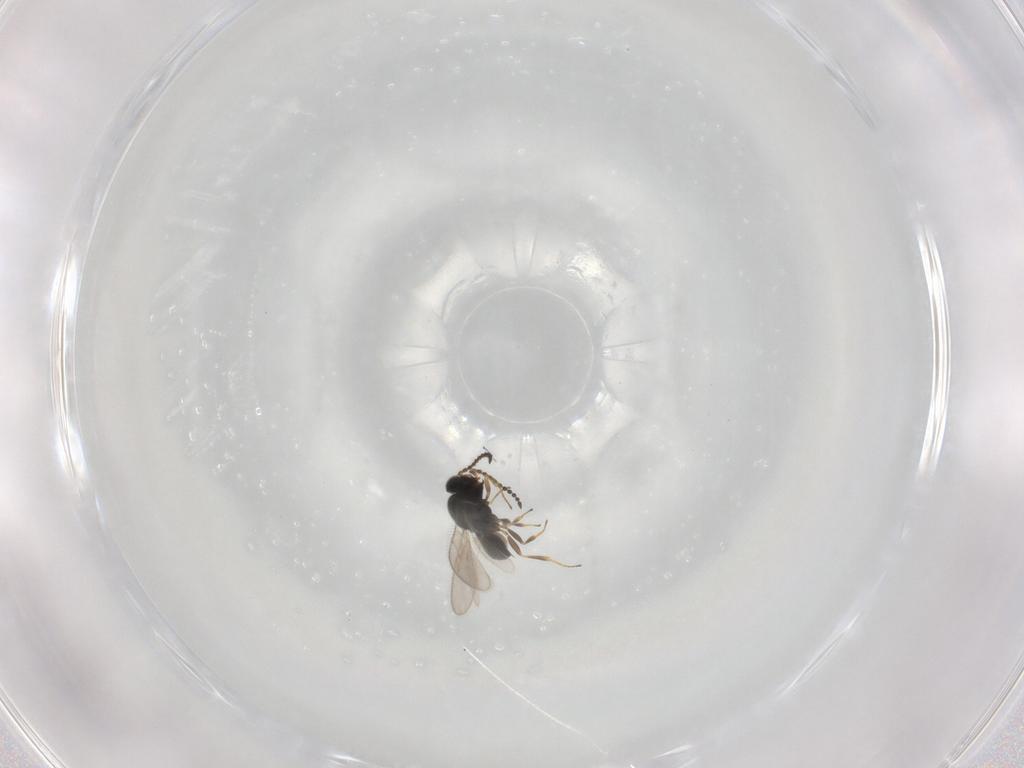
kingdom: Animalia
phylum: Arthropoda
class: Insecta
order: Hymenoptera
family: Scelionidae
